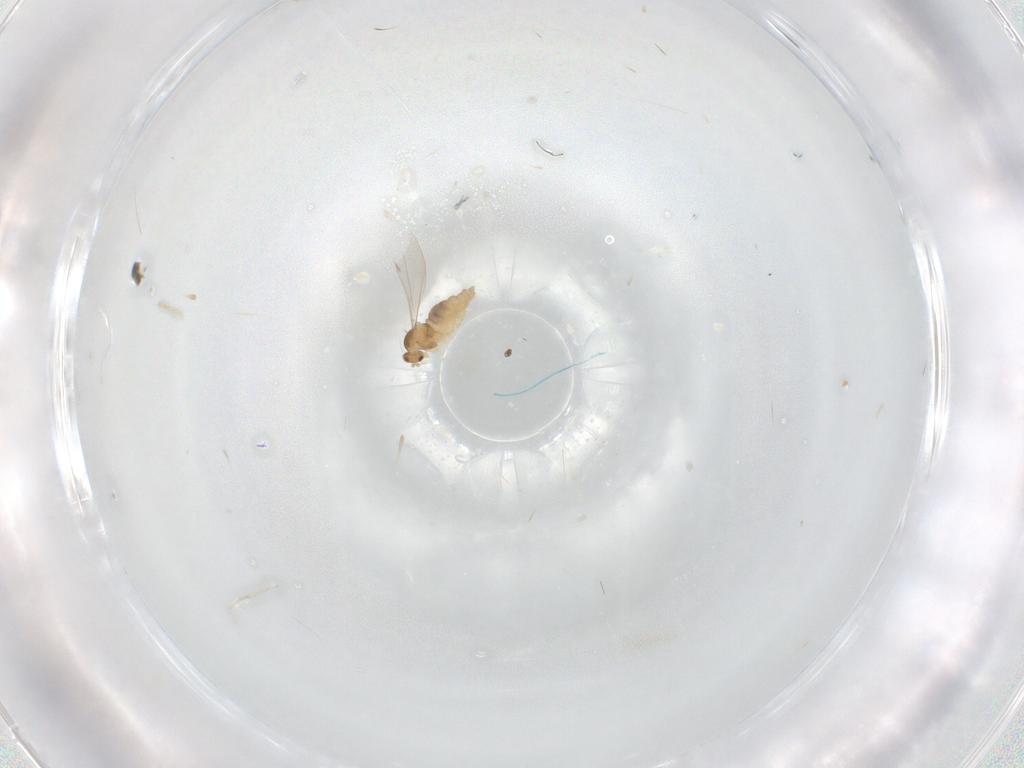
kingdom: Animalia
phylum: Arthropoda
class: Insecta
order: Diptera
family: Cecidomyiidae
